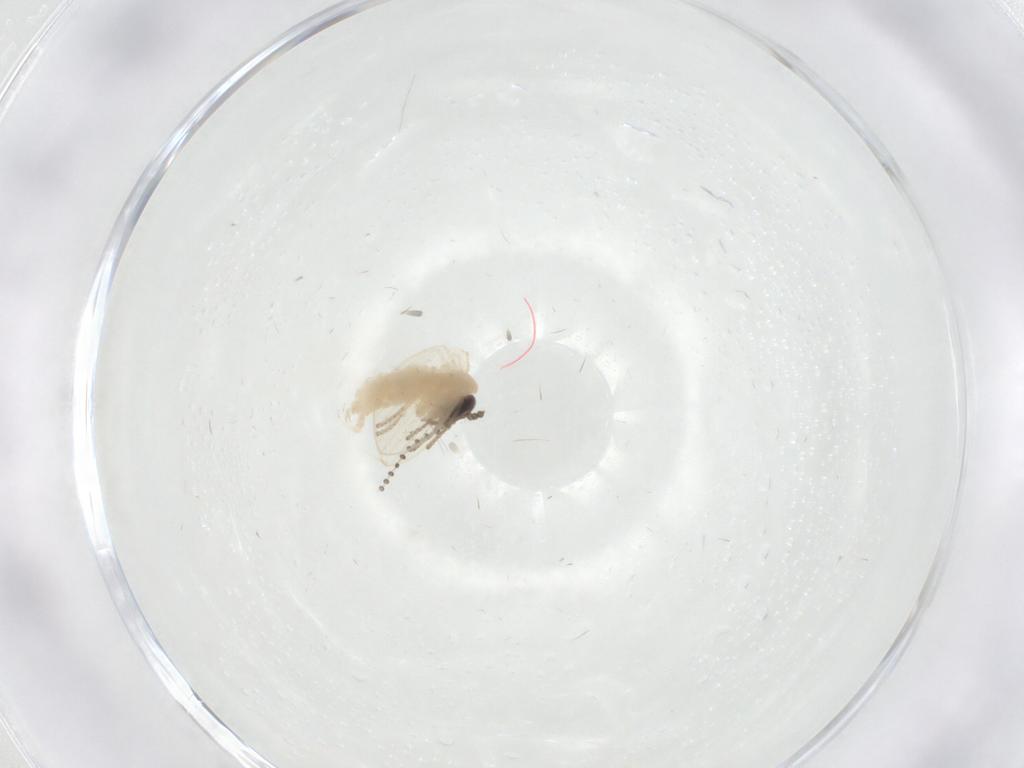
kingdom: Animalia
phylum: Arthropoda
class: Insecta
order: Diptera
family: Psychodidae
